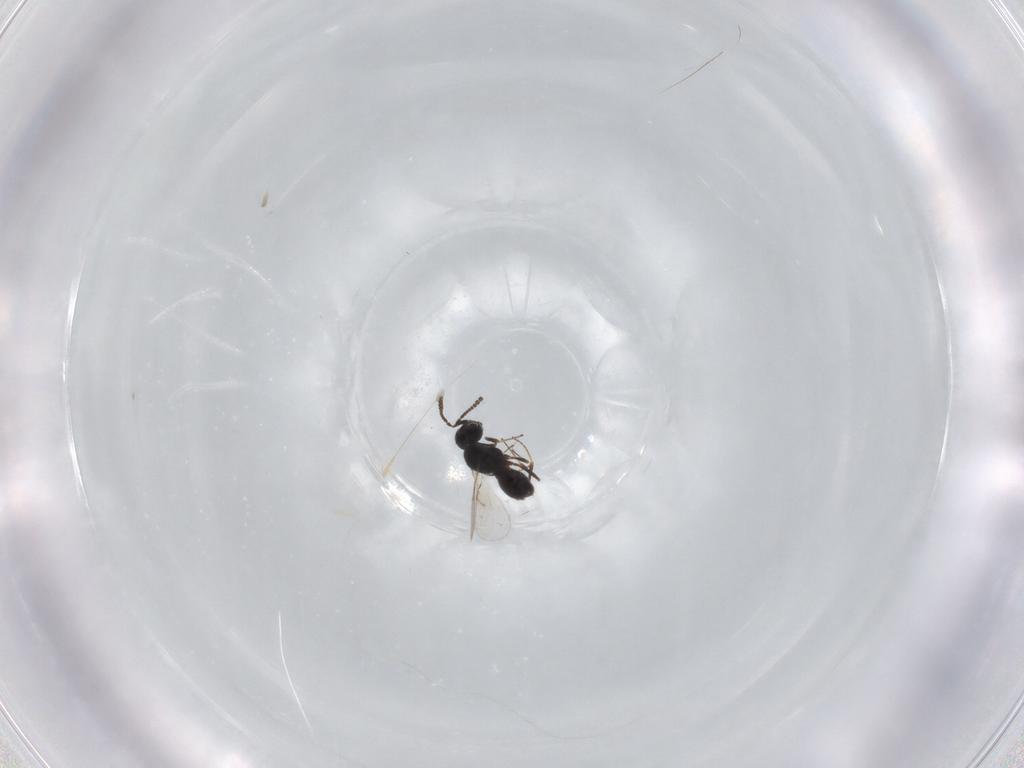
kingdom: Animalia
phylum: Arthropoda
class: Insecta
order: Hymenoptera
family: Scelionidae
